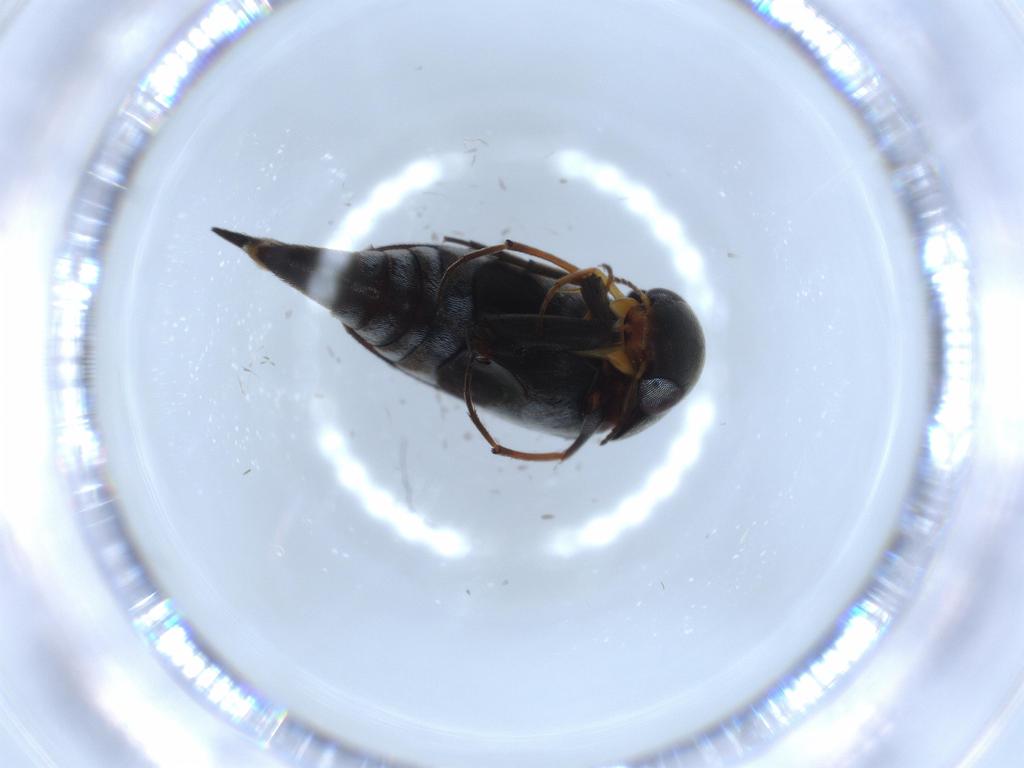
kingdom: Animalia
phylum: Arthropoda
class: Insecta
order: Coleoptera
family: Mordellidae
